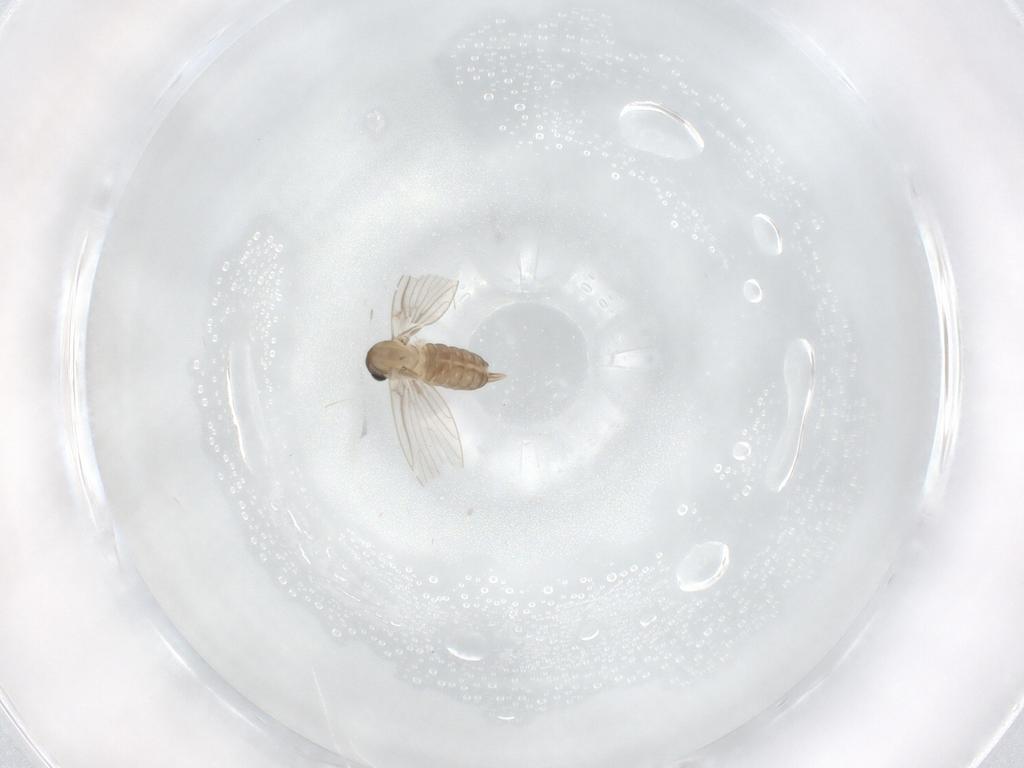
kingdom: Animalia
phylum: Arthropoda
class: Insecta
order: Diptera
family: Psychodidae
